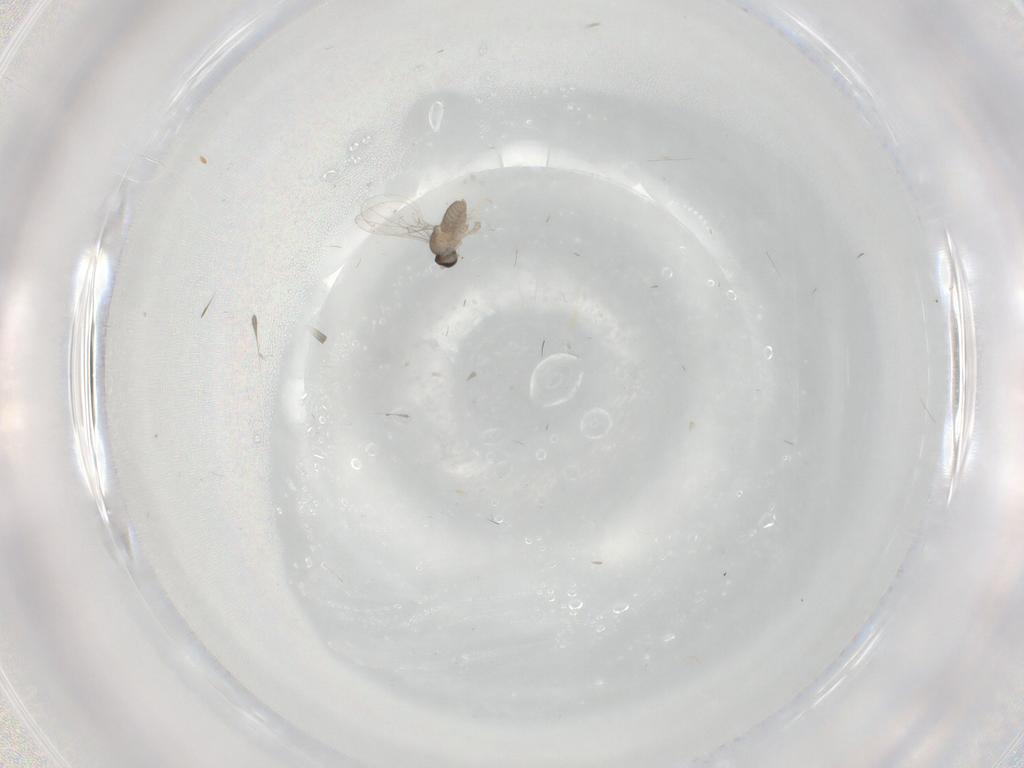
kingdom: Animalia
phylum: Arthropoda
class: Insecta
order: Diptera
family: Cecidomyiidae
